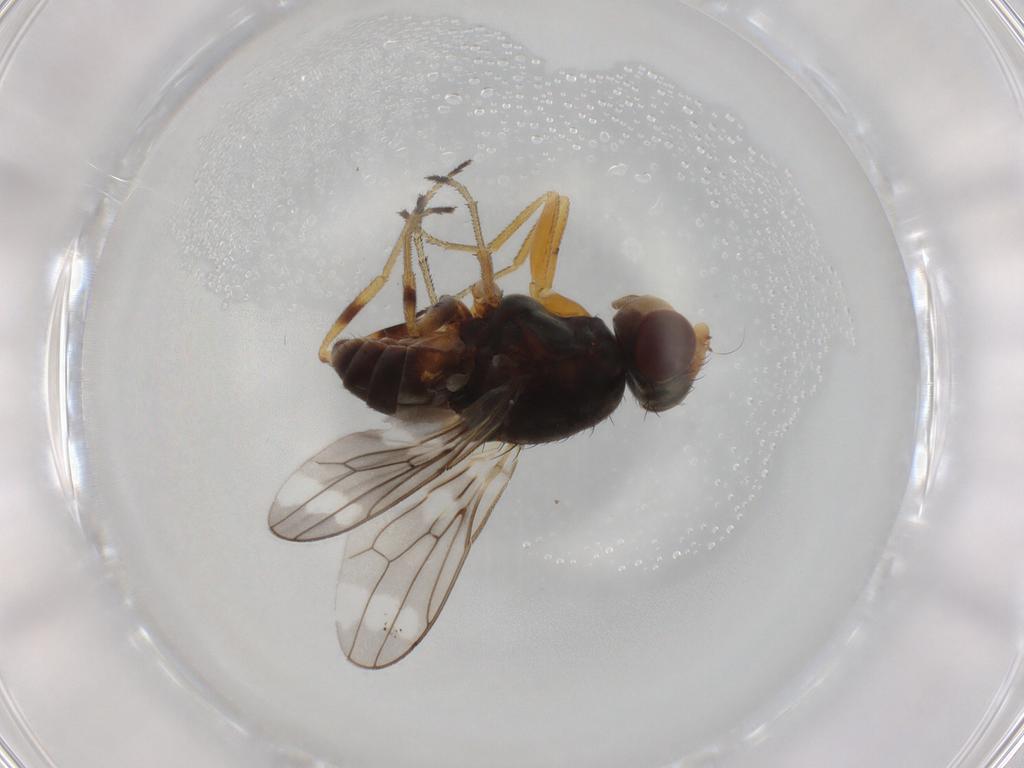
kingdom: Animalia
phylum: Arthropoda
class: Insecta
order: Diptera
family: Chloropidae
